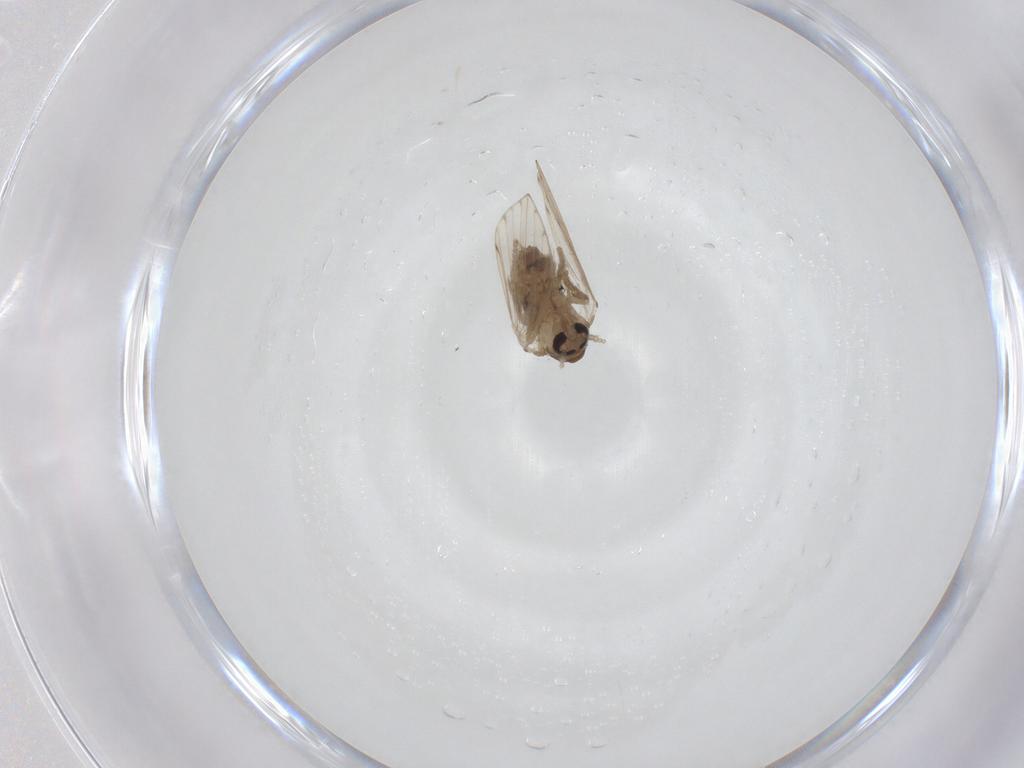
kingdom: Animalia
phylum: Arthropoda
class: Insecta
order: Diptera
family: Psychodidae
